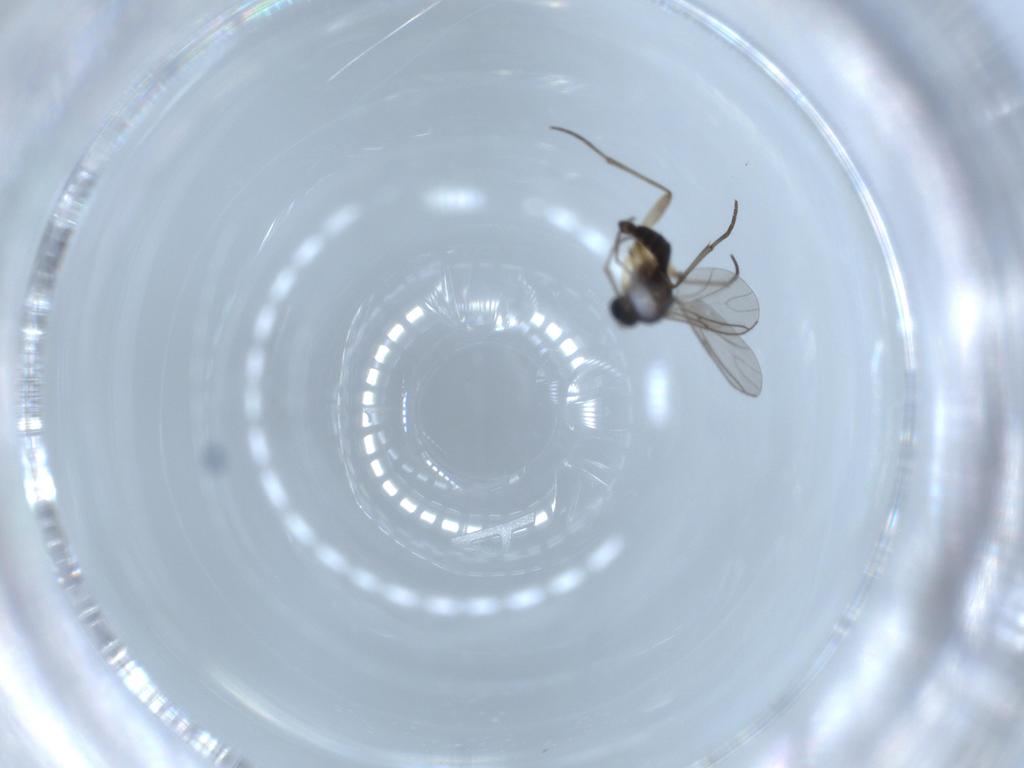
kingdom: Animalia
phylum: Arthropoda
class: Insecta
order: Diptera
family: Sciaridae
